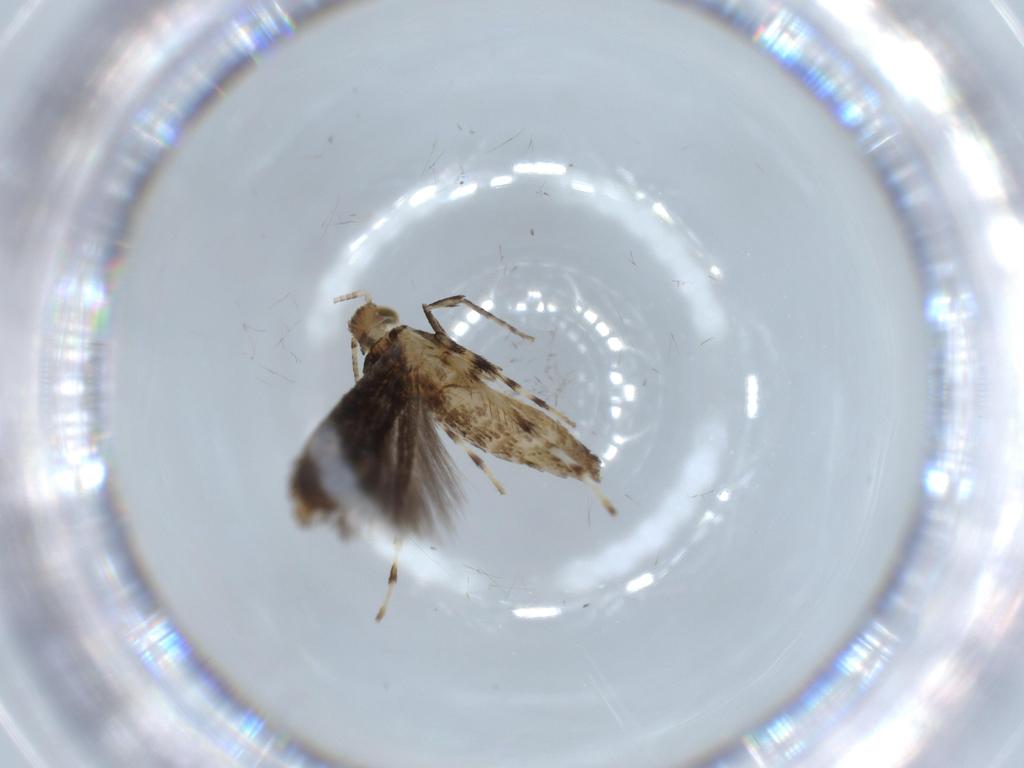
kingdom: Animalia
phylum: Arthropoda
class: Insecta
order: Lepidoptera
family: Gracillariidae
